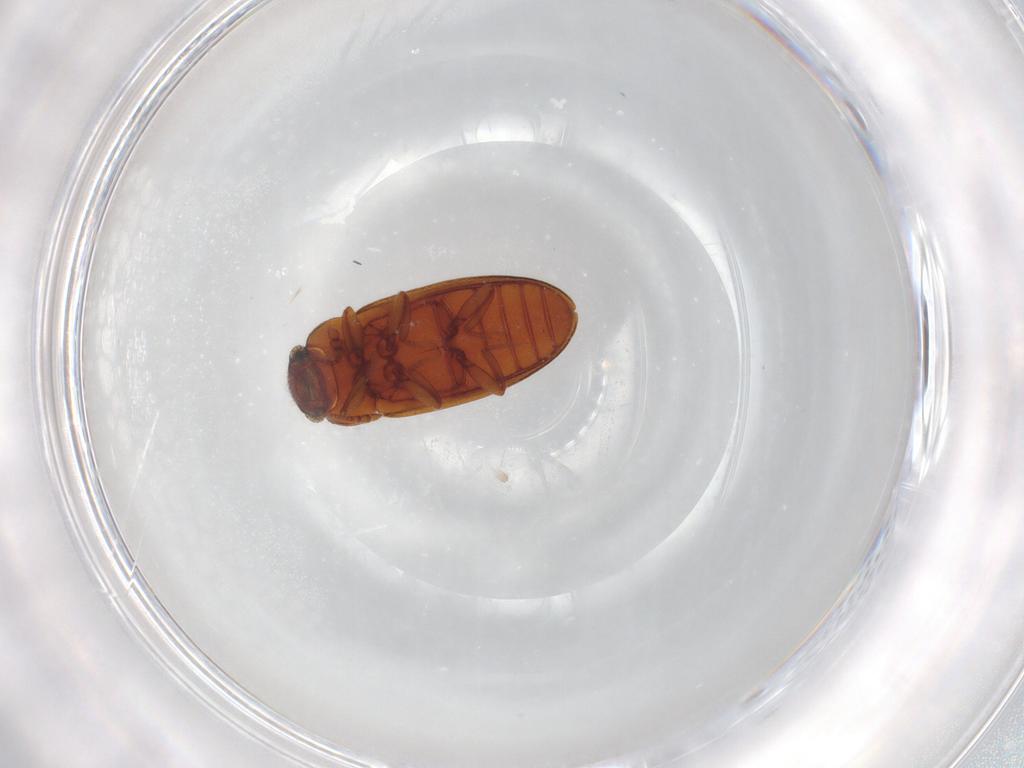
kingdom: Animalia
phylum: Arthropoda
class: Insecta
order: Coleoptera
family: Erotylidae
